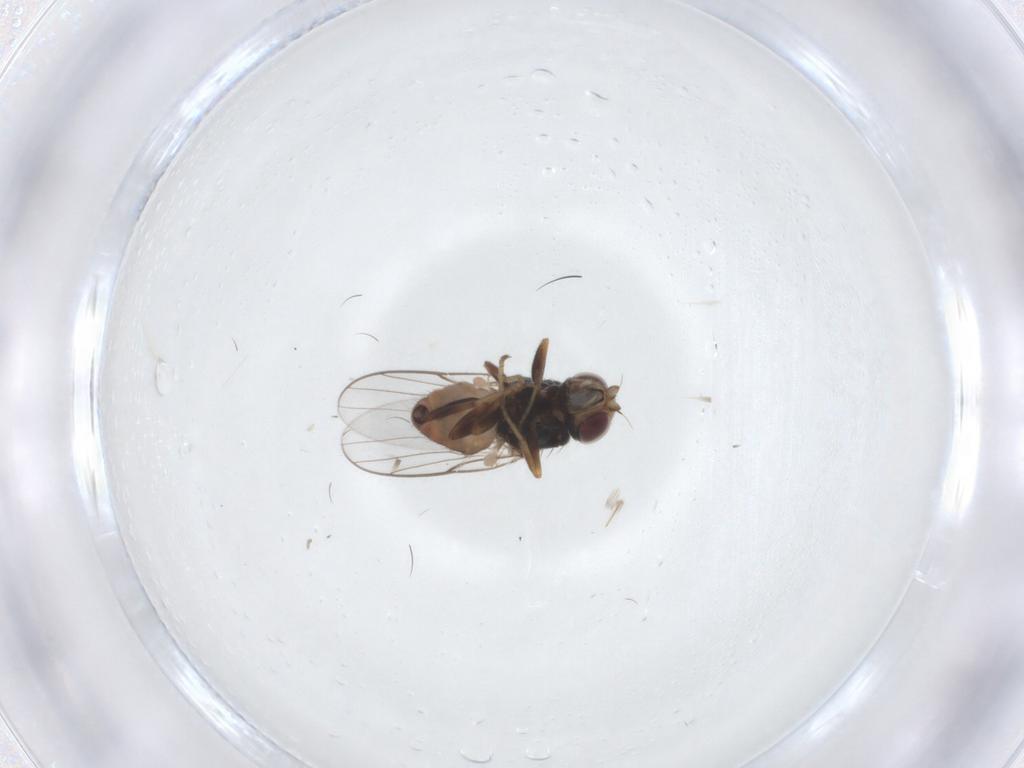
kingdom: Animalia
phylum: Arthropoda
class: Insecta
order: Diptera
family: Chloropidae
